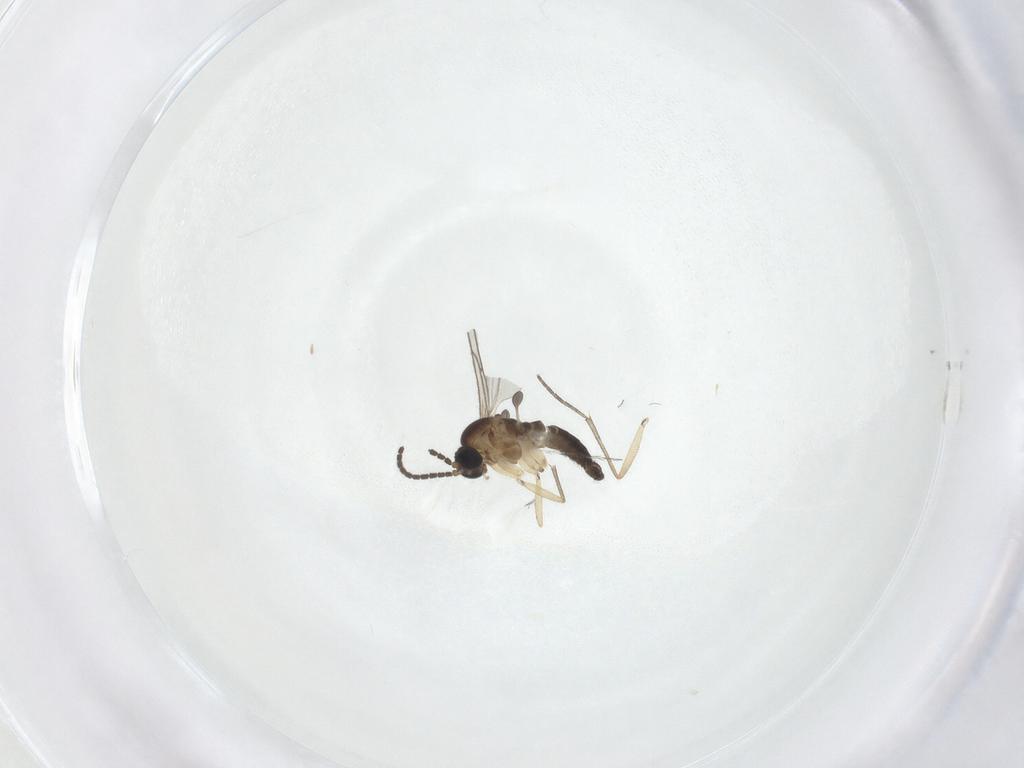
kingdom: Animalia
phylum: Arthropoda
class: Insecta
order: Diptera
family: Sciaridae
